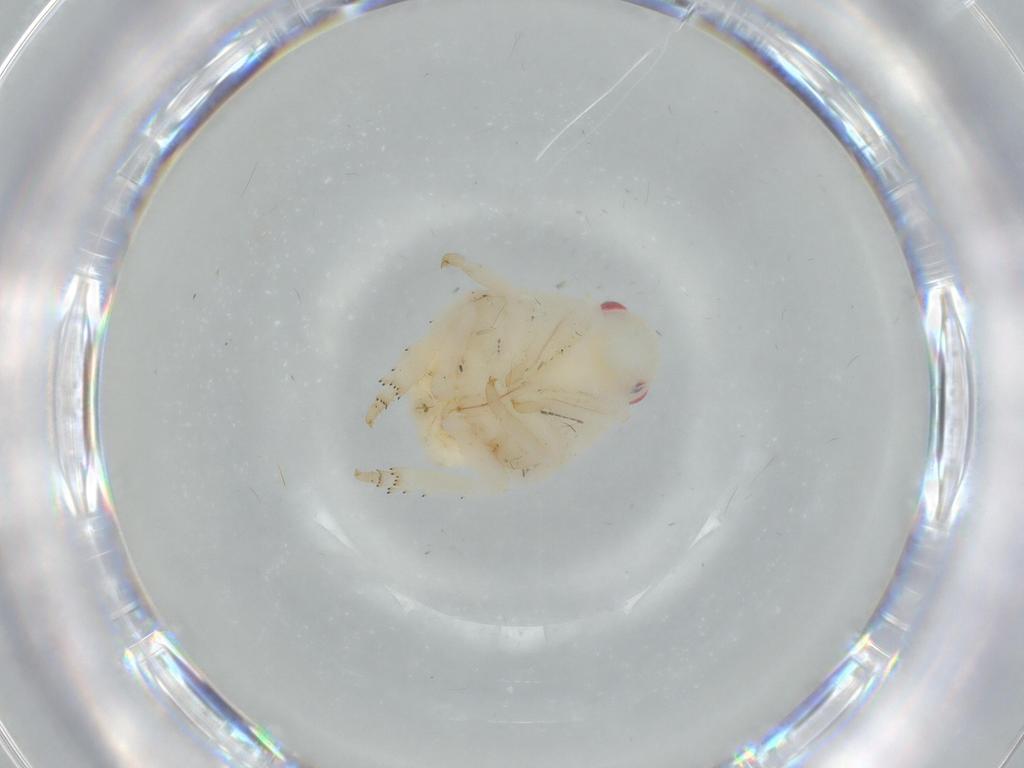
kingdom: Animalia
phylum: Arthropoda
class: Insecta
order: Hemiptera
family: Flatidae
